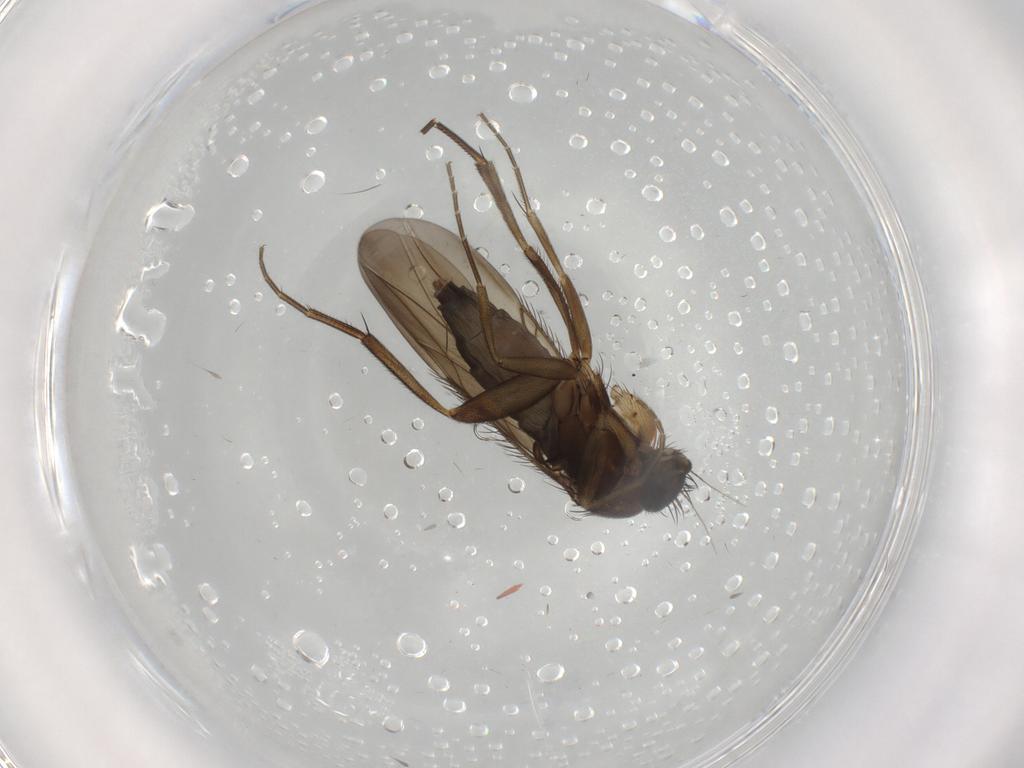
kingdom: Animalia
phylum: Arthropoda
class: Insecta
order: Diptera
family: Phoridae
